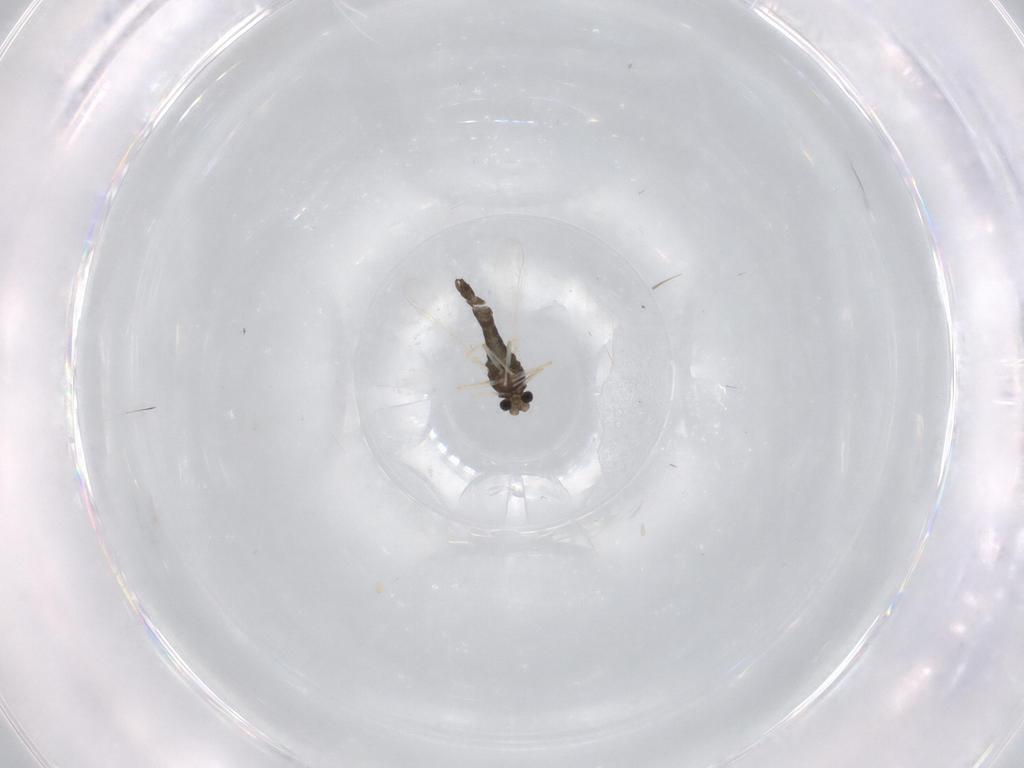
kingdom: Animalia
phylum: Arthropoda
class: Insecta
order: Diptera
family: Chironomidae
